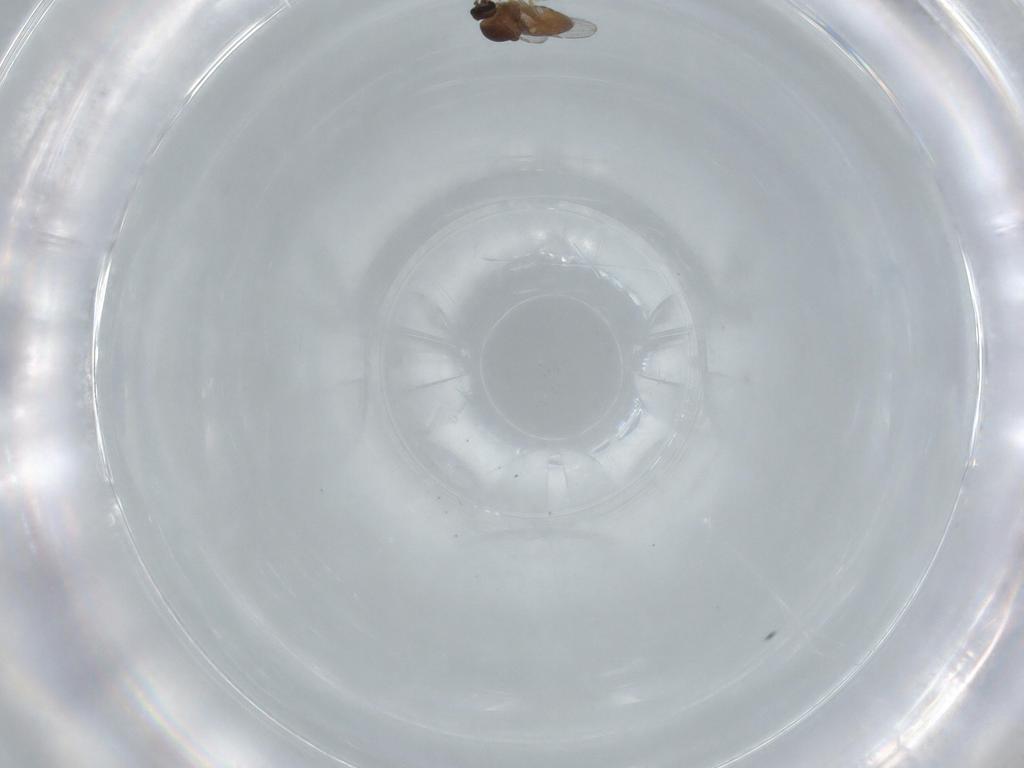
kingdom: Animalia
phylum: Arthropoda
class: Insecta
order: Diptera
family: Ceratopogonidae
